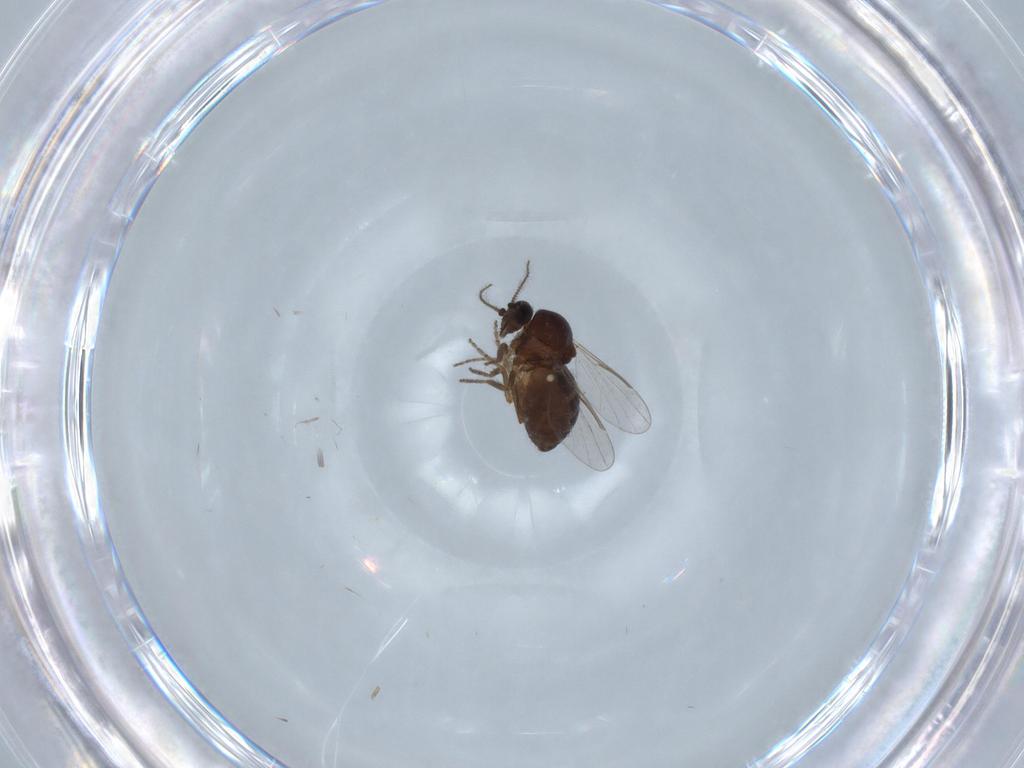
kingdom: Animalia
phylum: Arthropoda
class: Insecta
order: Diptera
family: Ceratopogonidae
